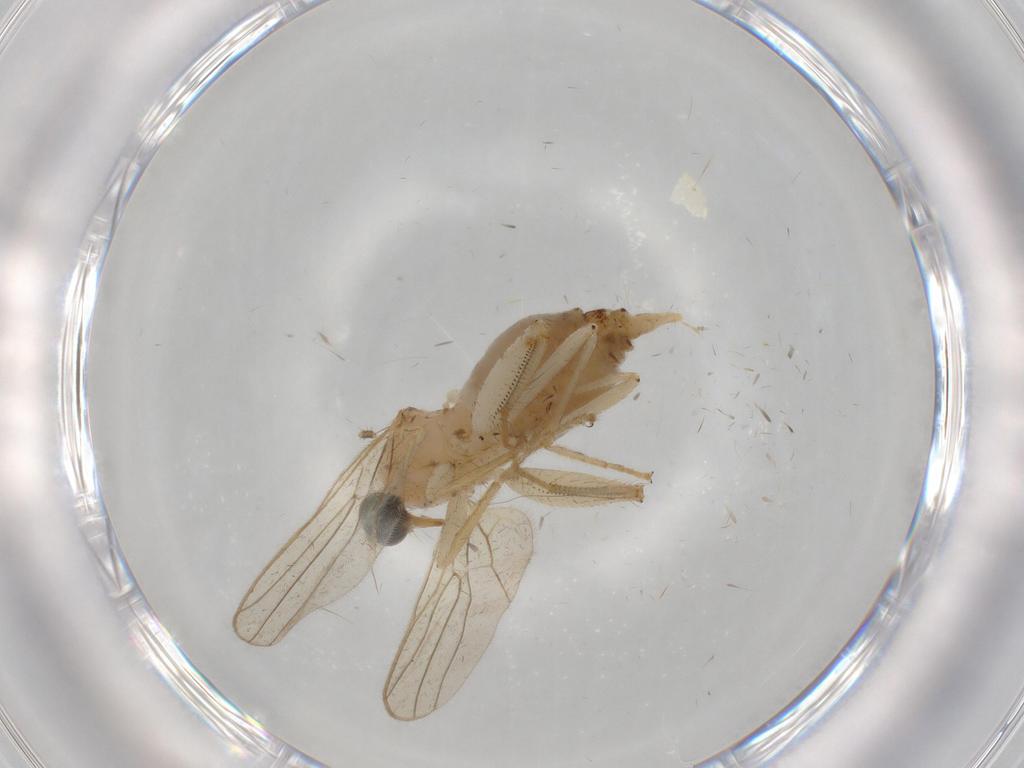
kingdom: Animalia
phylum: Arthropoda
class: Insecta
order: Diptera
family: Hybotidae
